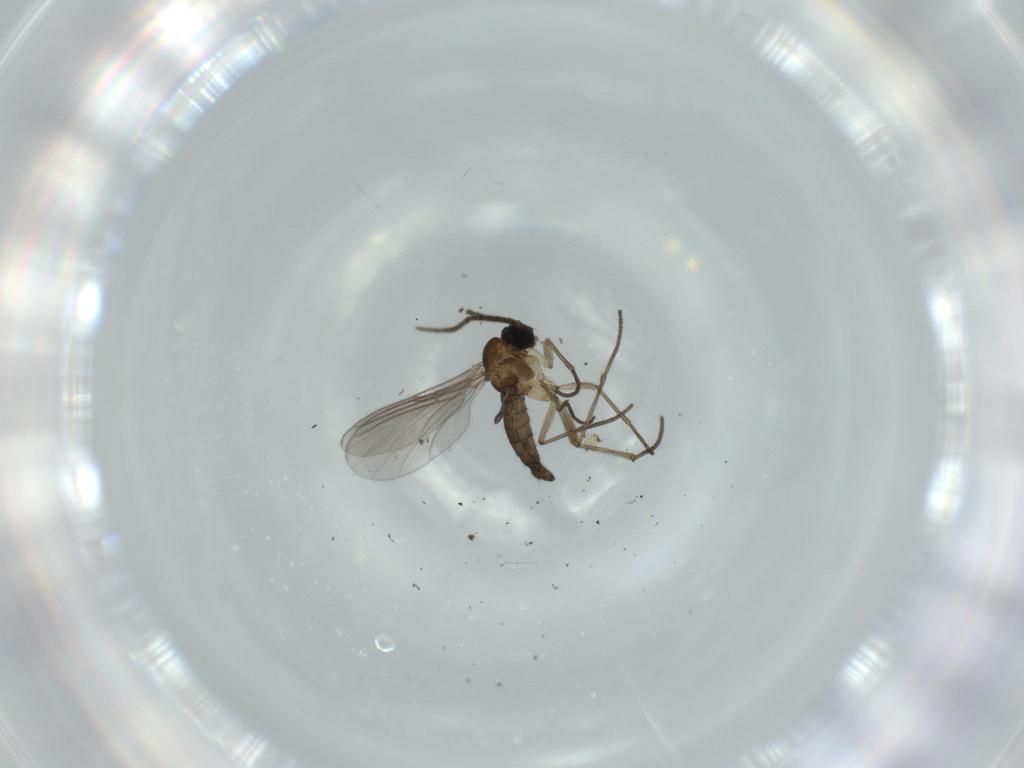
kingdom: Animalia
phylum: Arthropoda
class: Insecta
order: Diptera
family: Sciaridae
